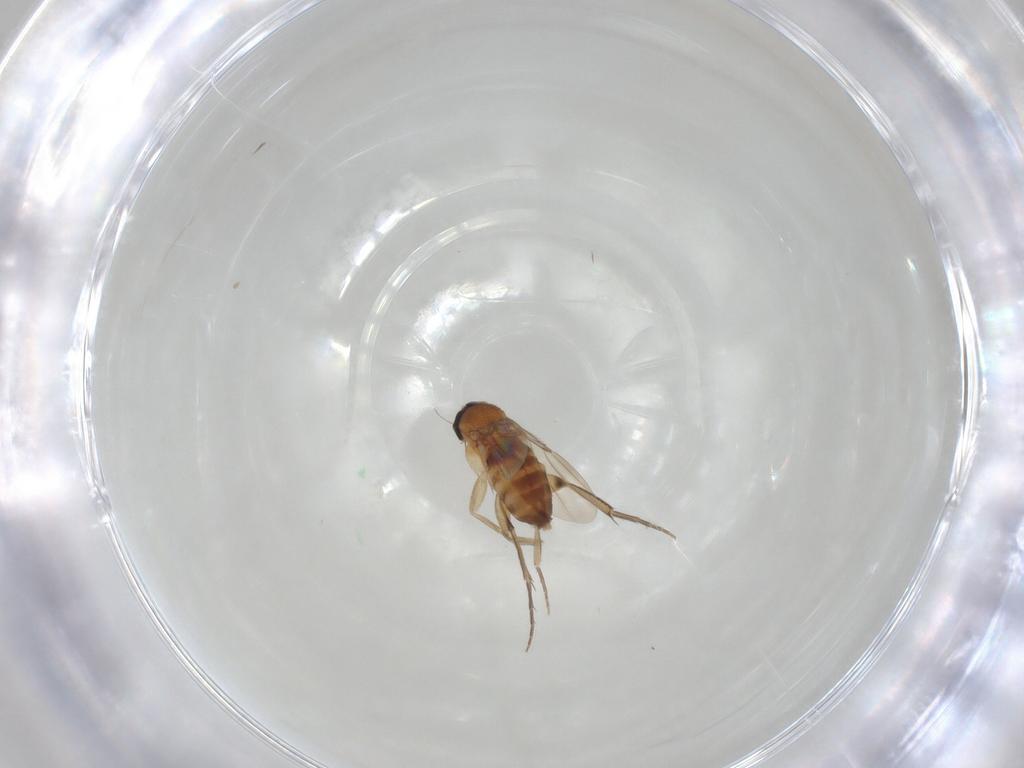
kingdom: Animalia
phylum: Arthropoda
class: Insecta
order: Diptera
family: Phoridae
